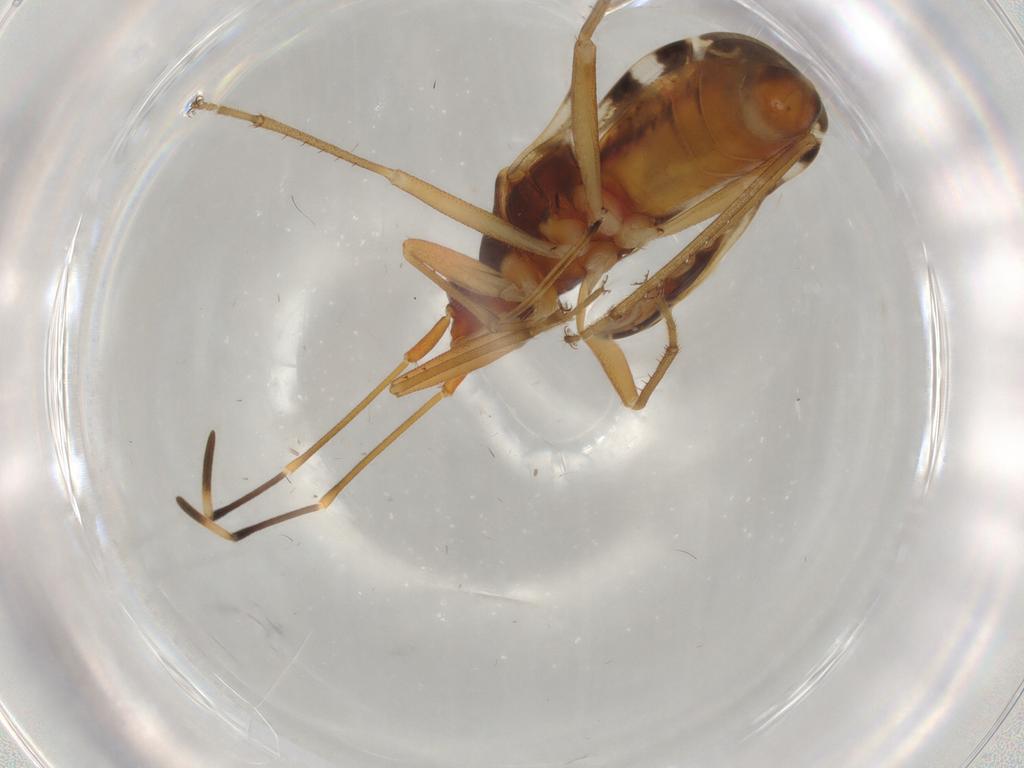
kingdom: Animalia
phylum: Arthropoda
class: Insecta
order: Hemiptera
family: Rhyparochromidae
